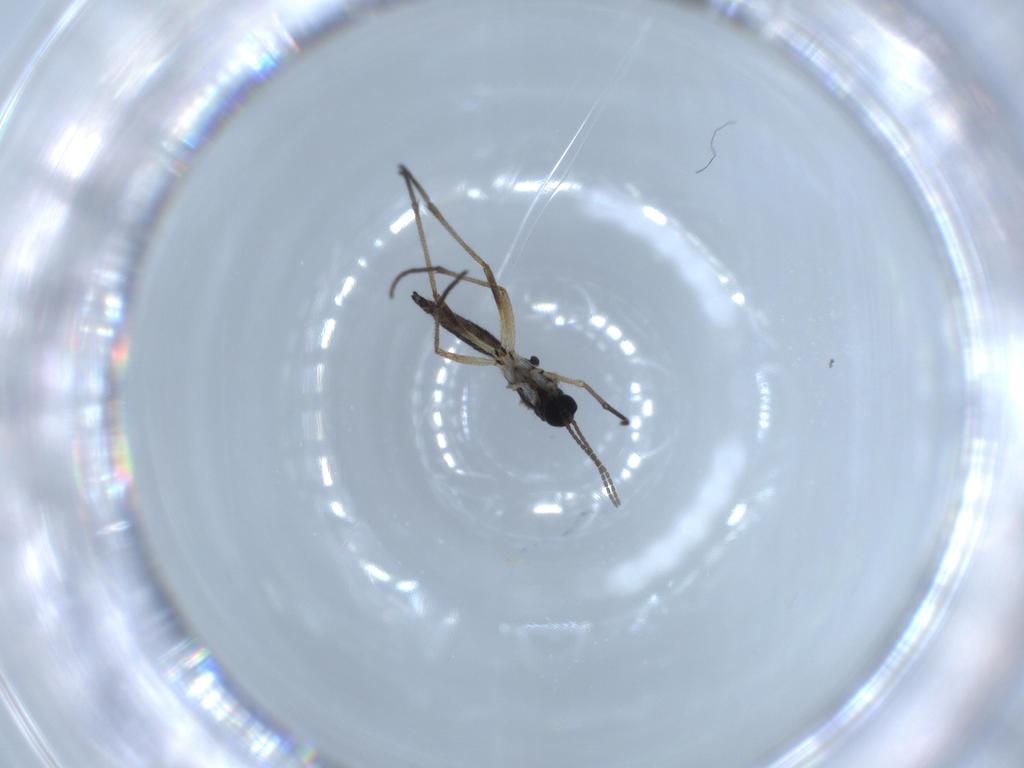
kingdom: Animalia
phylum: Arthropoda
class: Insecta
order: Diptera
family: Sciaridae
